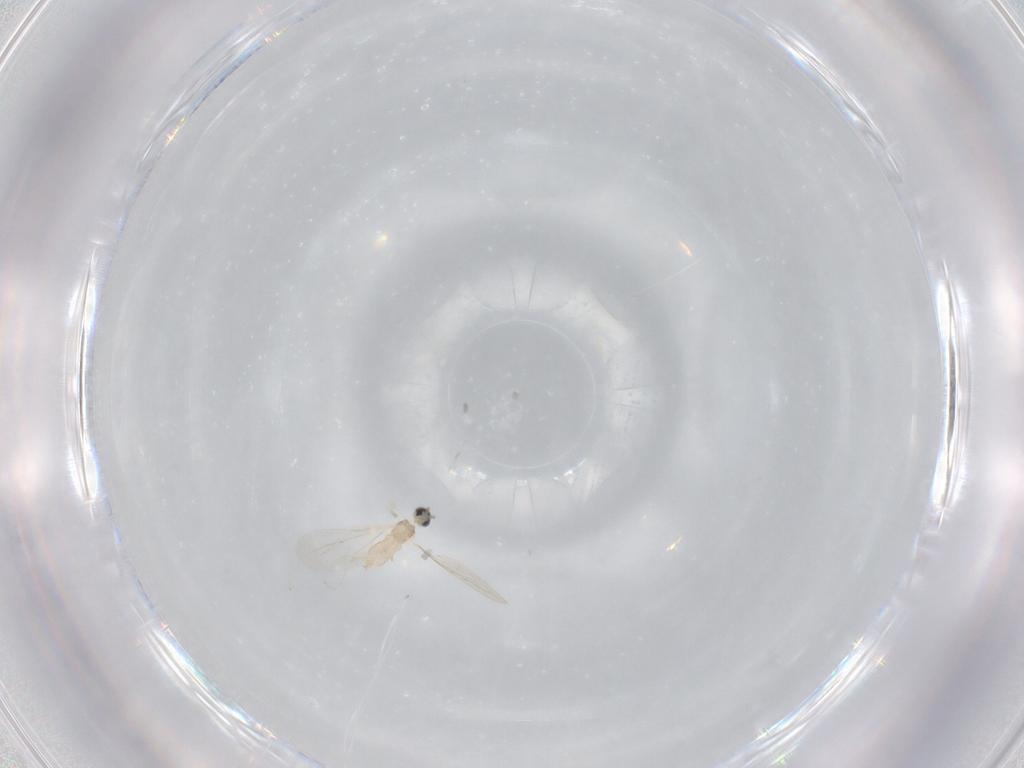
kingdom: Animalia
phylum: Arthropoda
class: Insecta
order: Diptera
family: Cecidomyiidae
